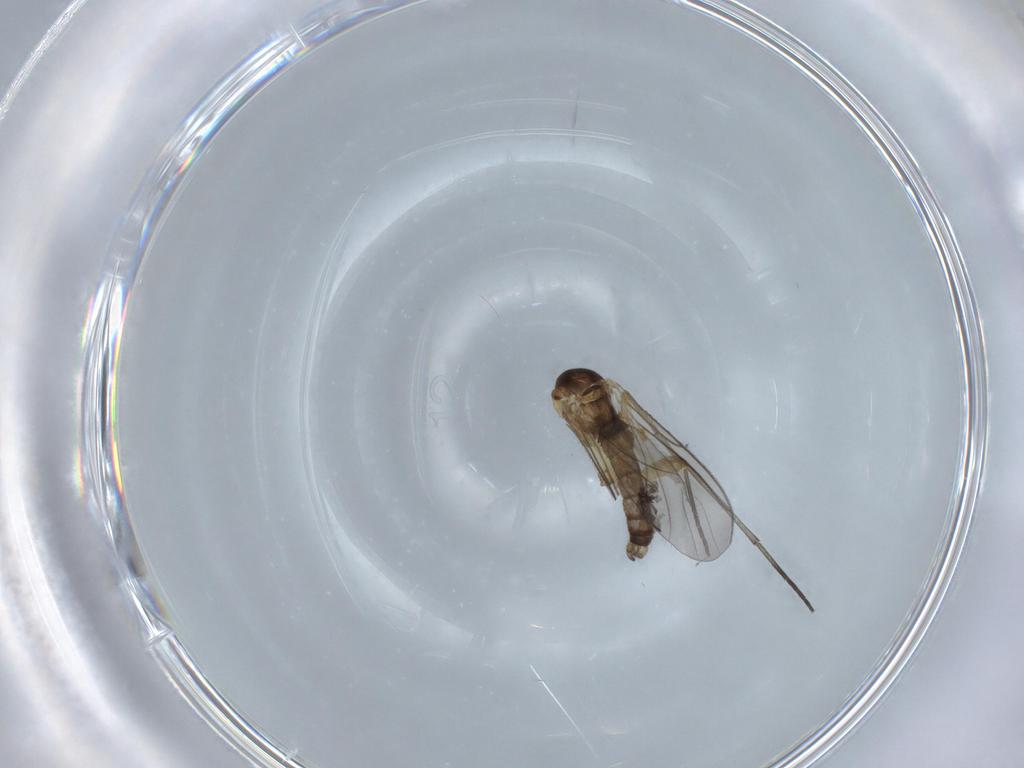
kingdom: Animalia
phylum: Arthropoda
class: Insecta
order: Diptera
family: Sciaridae
